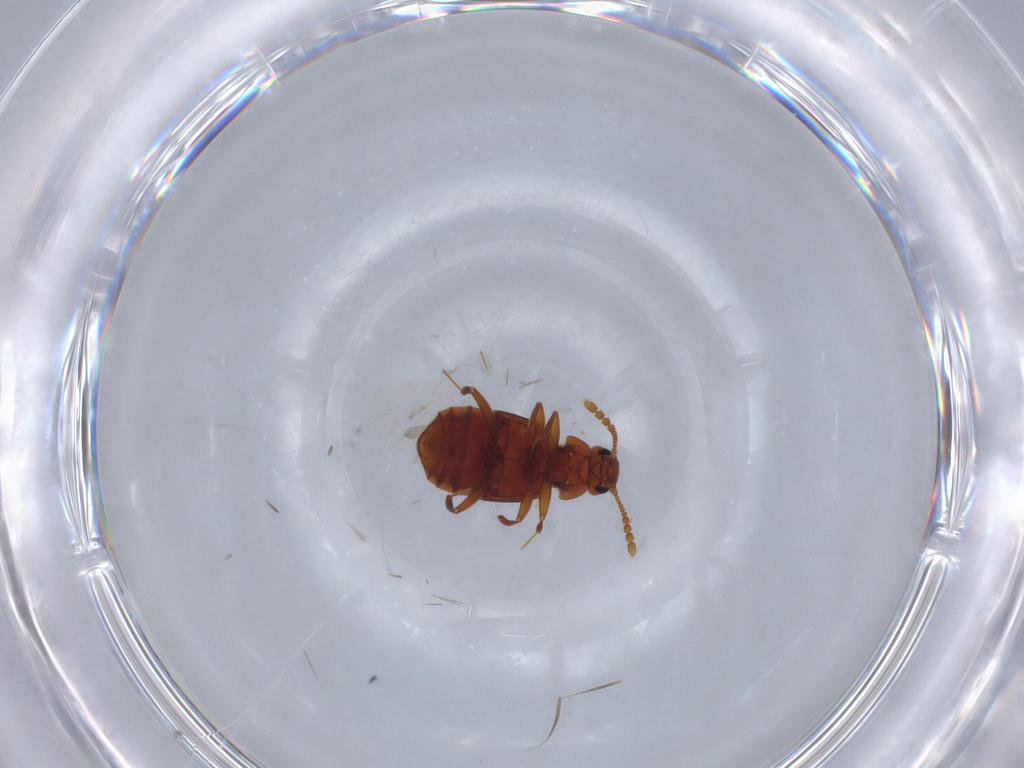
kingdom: Animalia
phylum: Arthropoda
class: Insecta
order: Coleoptera
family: Staphylinidae
